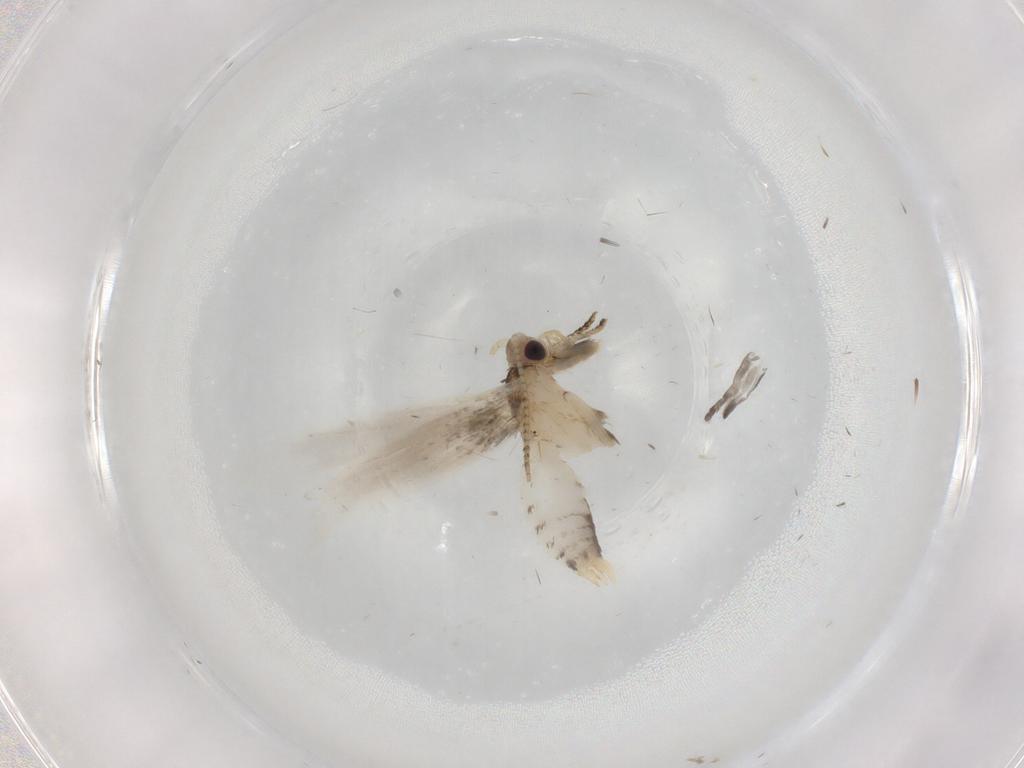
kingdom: Animalia
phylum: Arthropoda
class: Insecta
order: Lepidoptera
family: Tineidae
